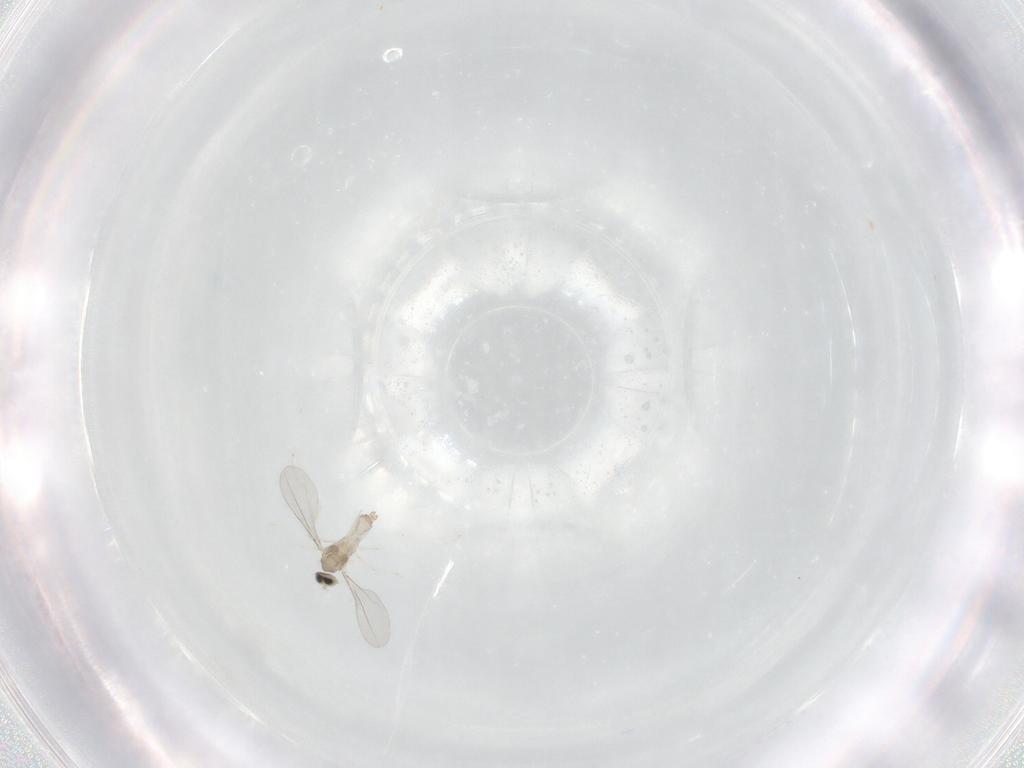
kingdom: Animalia
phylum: Arthropoda
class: Insecta
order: Diptera
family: Cecidomyiidae
